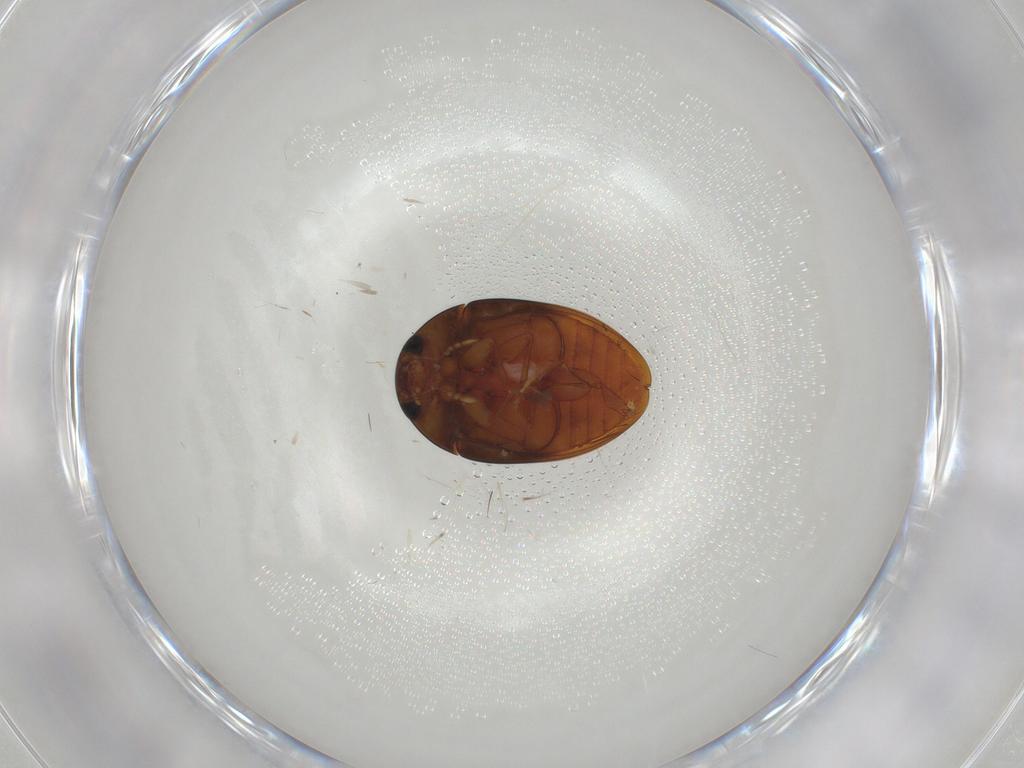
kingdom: Animalia
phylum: Arthropoda
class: Insecta
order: Coleoptera
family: Phalacridae
